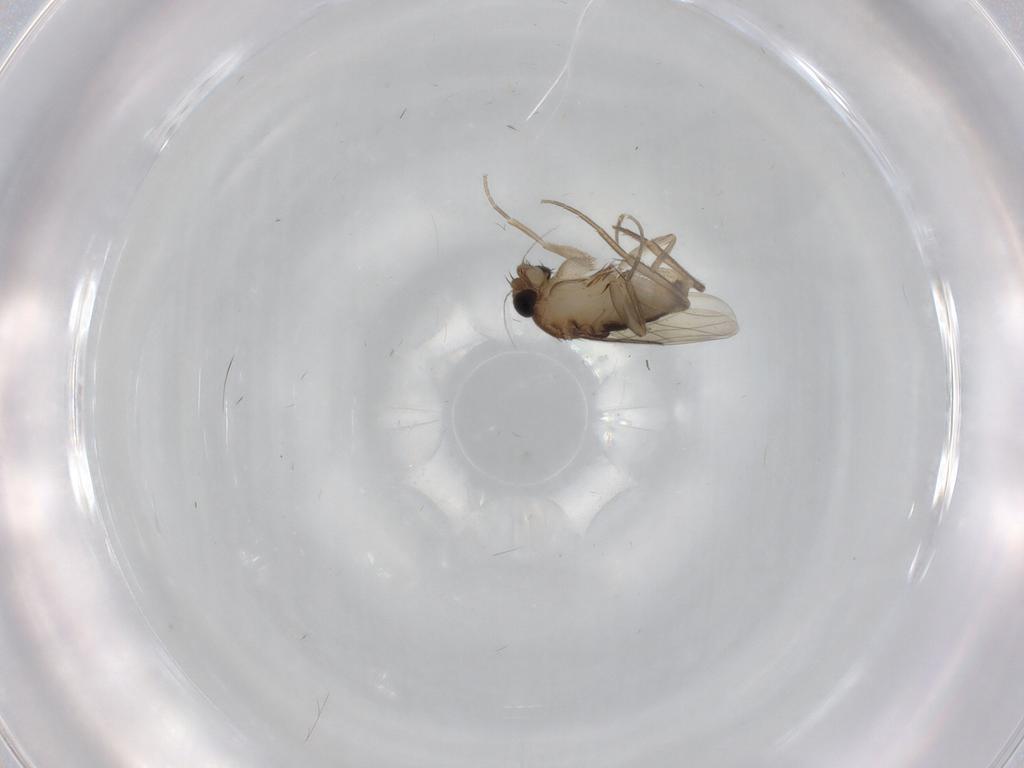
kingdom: Animalia
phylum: Arthropoda
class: Insecta
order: Diptera
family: Phoridae
